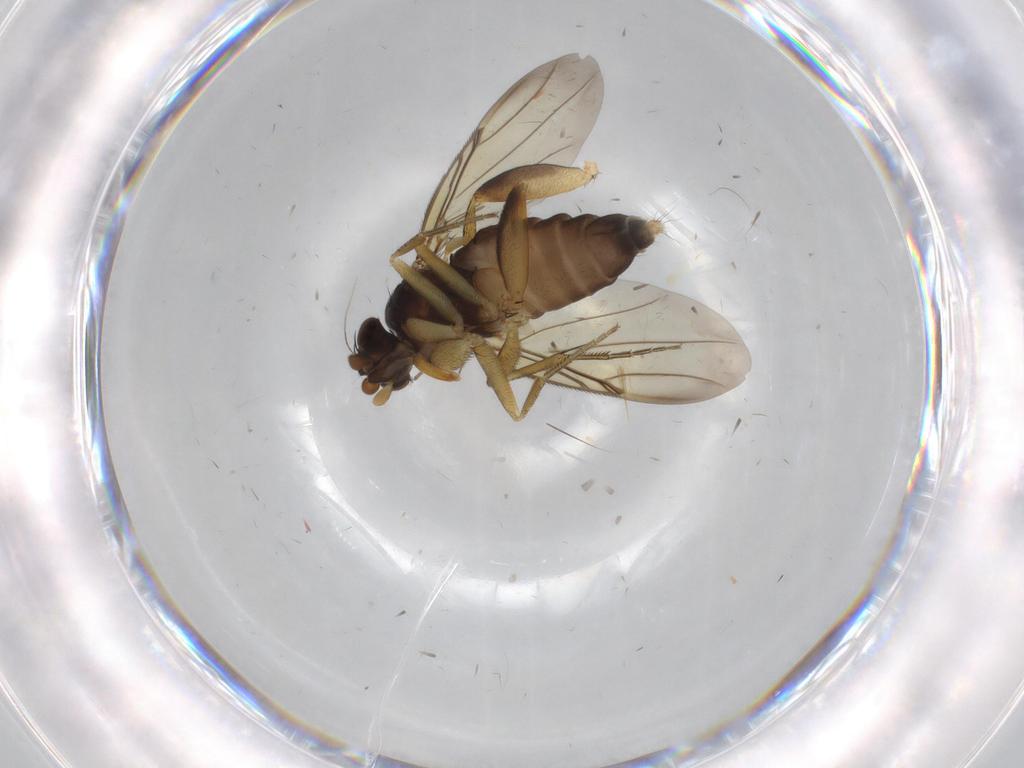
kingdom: Animalia
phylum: Arthropoda
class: Insecta
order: Diptera
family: Phoridae
